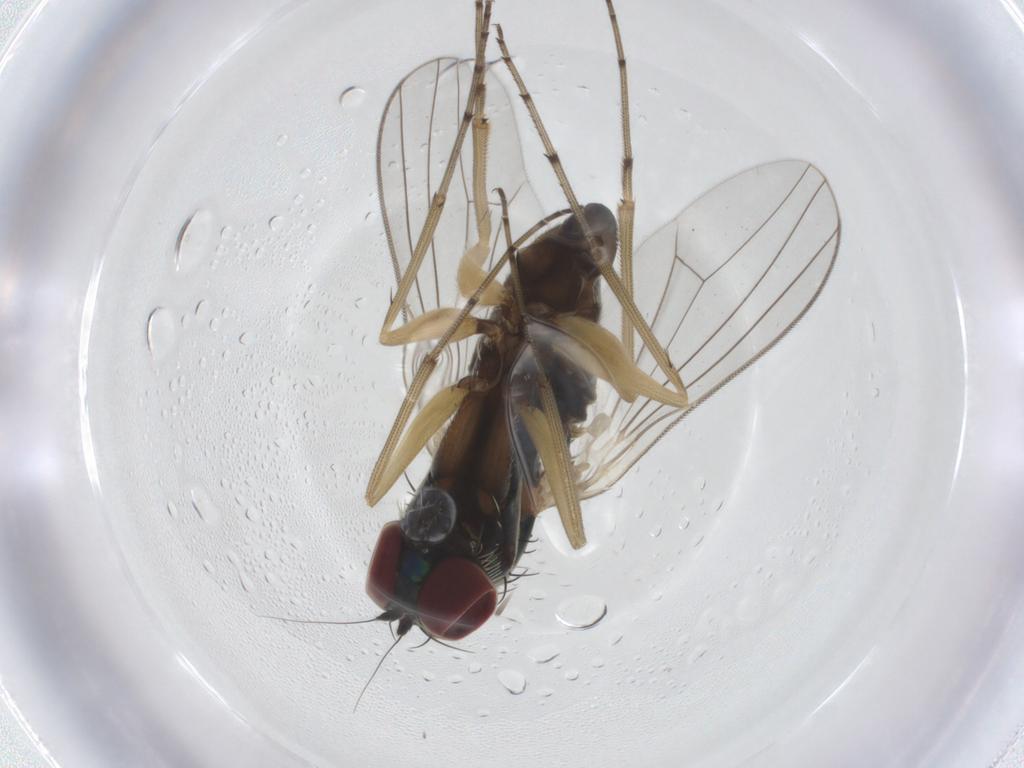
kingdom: Animalia
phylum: Arthropoda
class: Insecta
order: Diptera
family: Dolichopodidae
